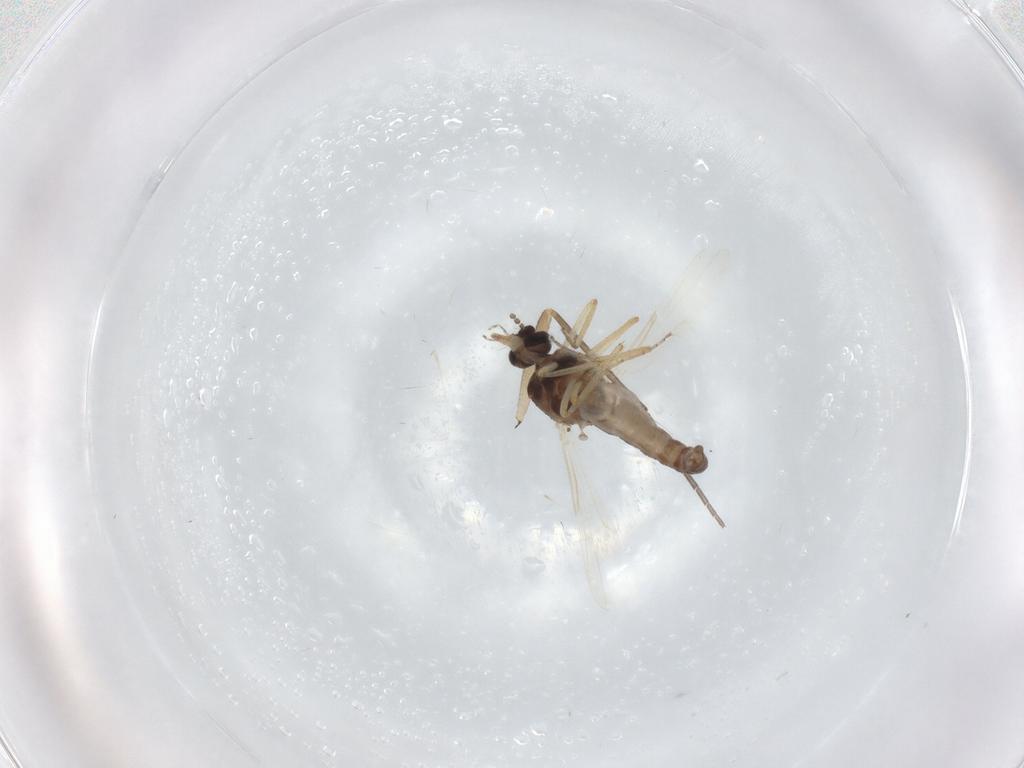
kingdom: Animalia
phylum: Arthropoda
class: Insecta
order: Diptera
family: Ceratopogonidae
